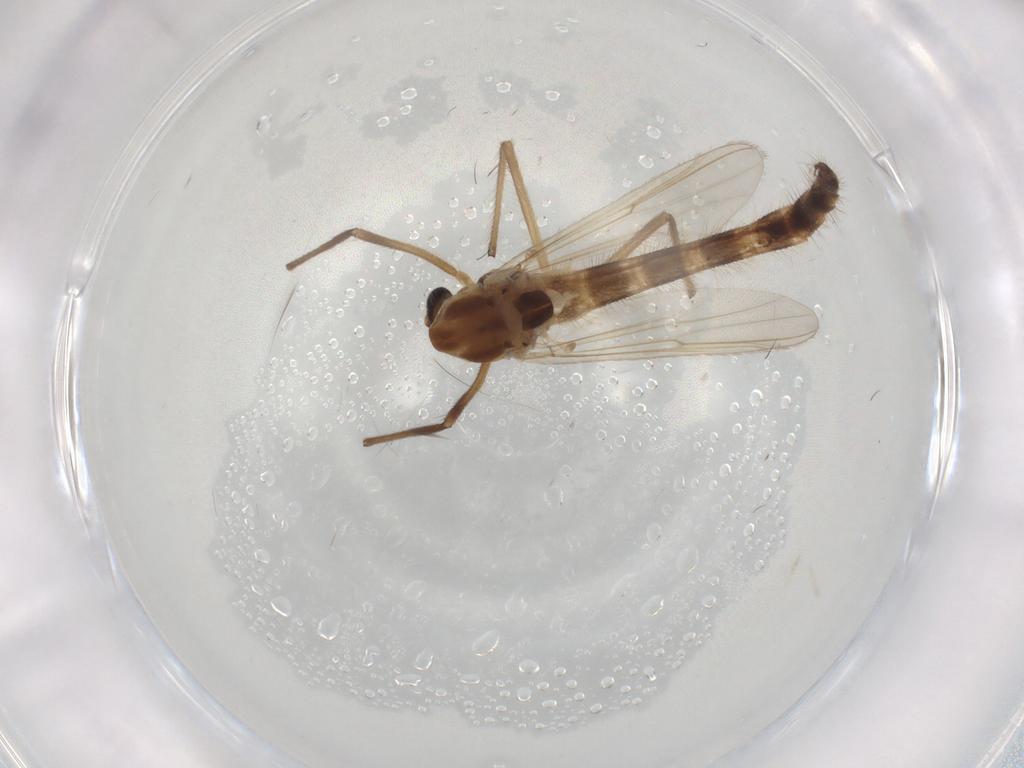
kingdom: Animalia
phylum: Arthropoda
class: Insecta
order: Diptera
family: Chironomidae
